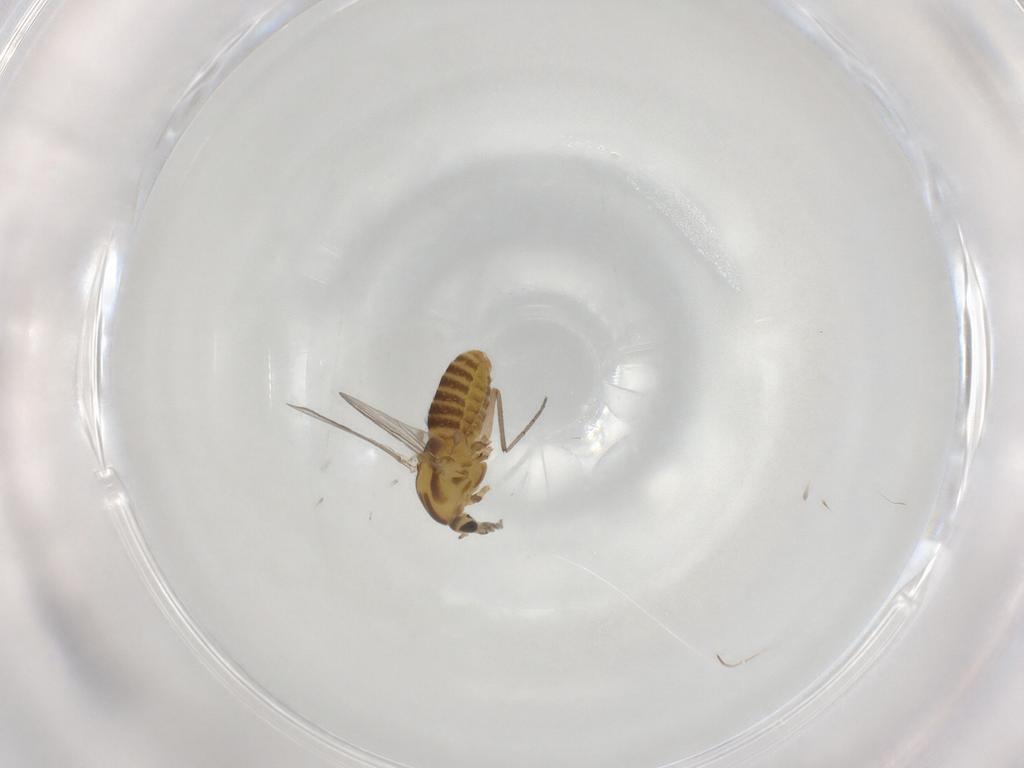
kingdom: Animalia
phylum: Arthropoda
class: Insecta
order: Diptera
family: Chironomidae
